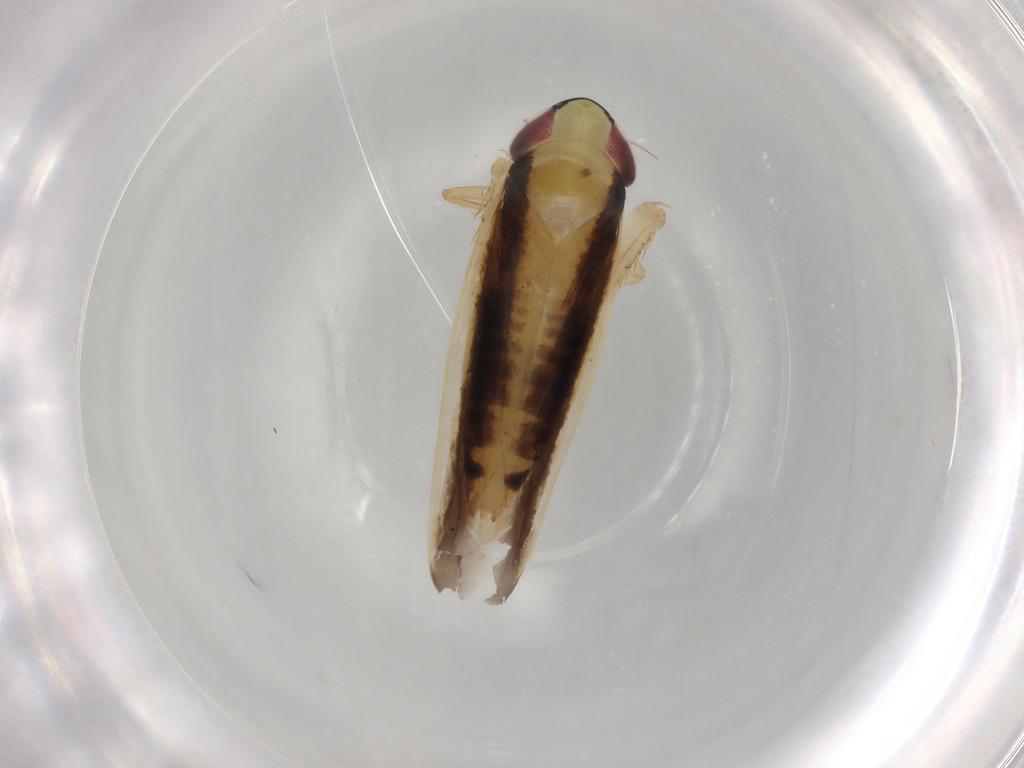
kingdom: Animalia
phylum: Arthropoda
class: Insecta
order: Hemiptera
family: Cicadellidae
